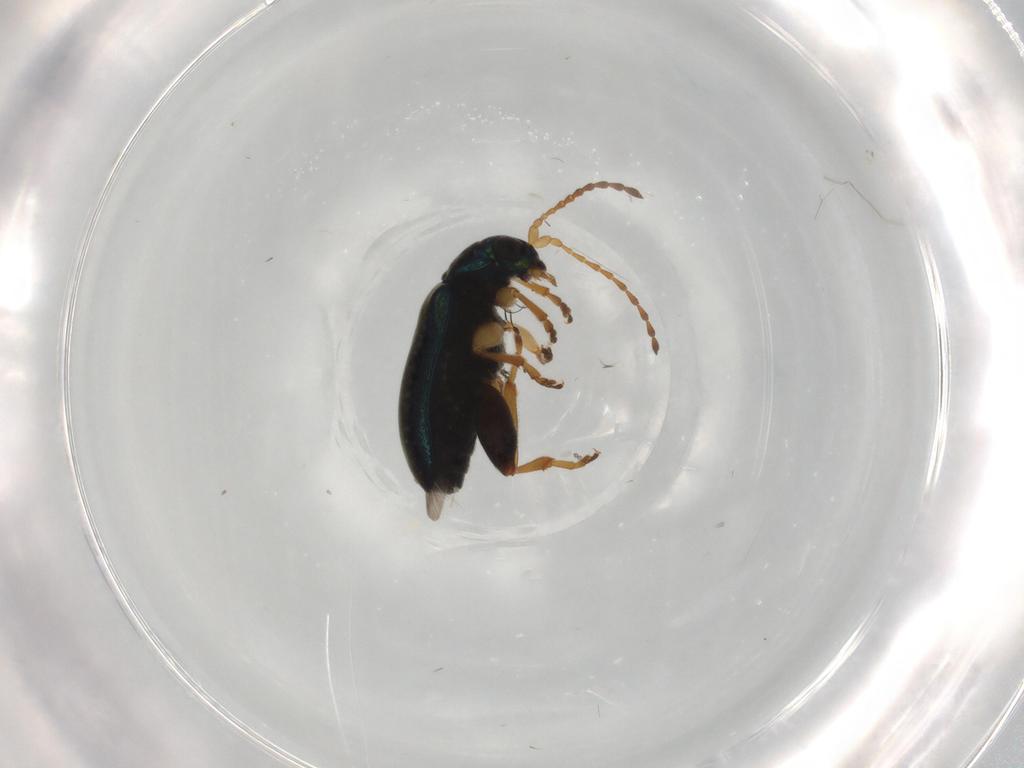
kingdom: Animalia
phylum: Arthropoda
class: Insecta
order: Coleoptera
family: Chrysomelidae
